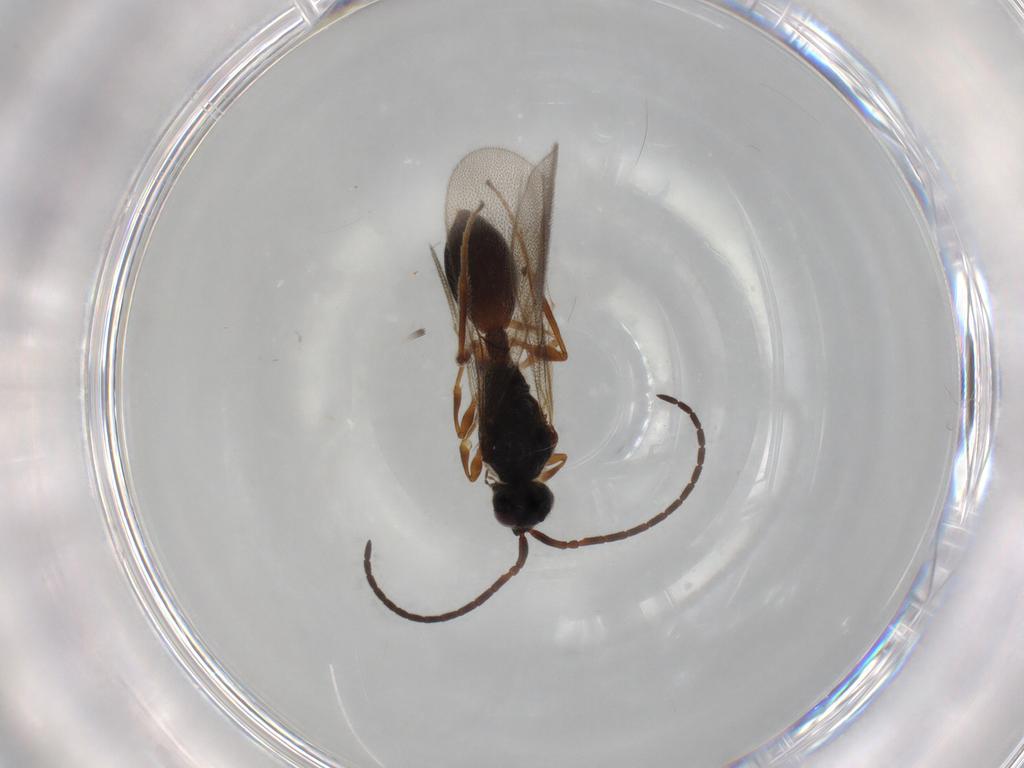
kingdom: Animalia
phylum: Arthropoda
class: Insecta
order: Hymenoptera
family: Diapriidae
